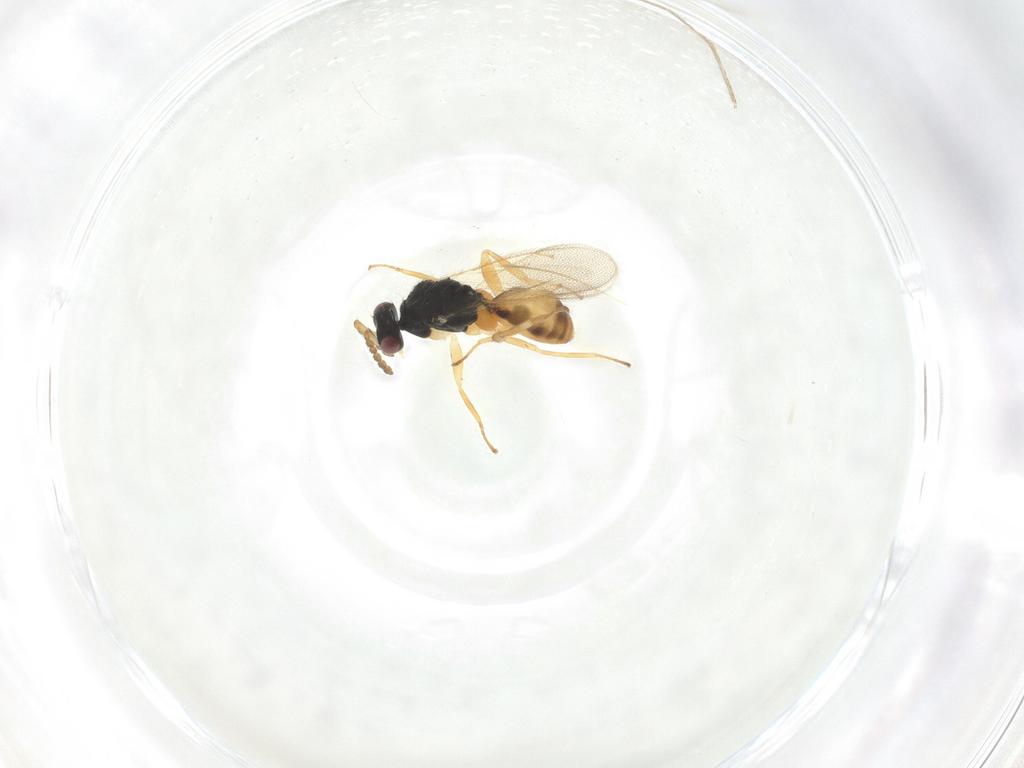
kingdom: Animalia
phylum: Arthropoda
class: Insecta
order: Hymenoptera
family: Eulophidae
